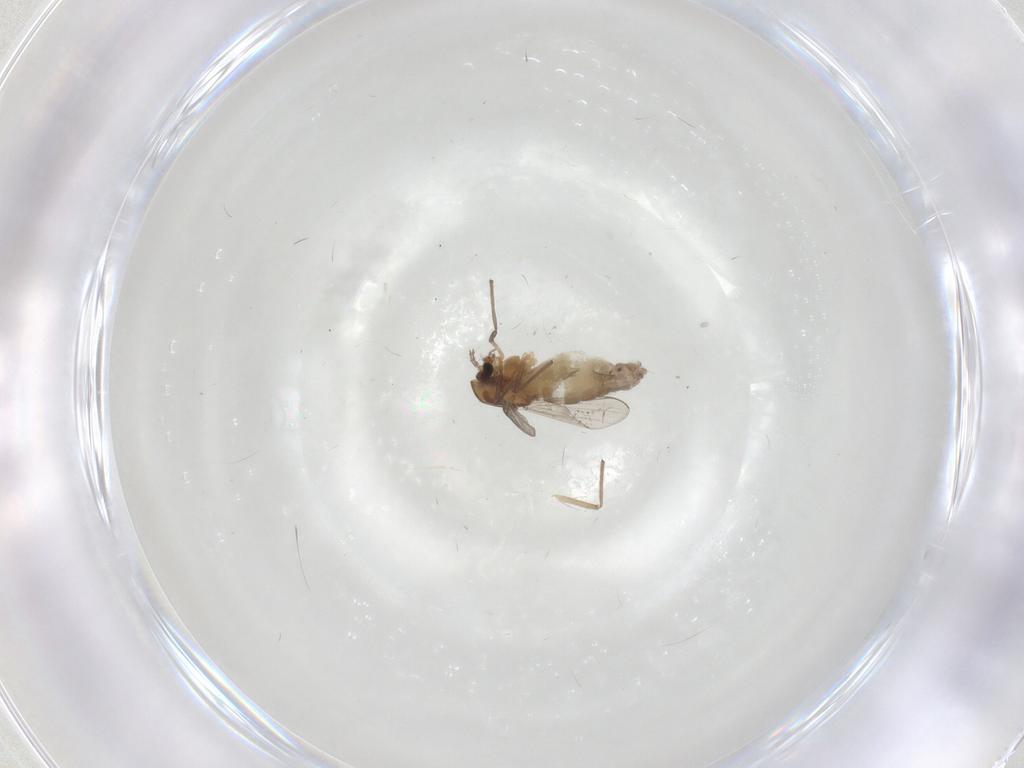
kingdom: Animalia
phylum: Arthropoda
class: Insecta
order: Diptera
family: Chironomidae
